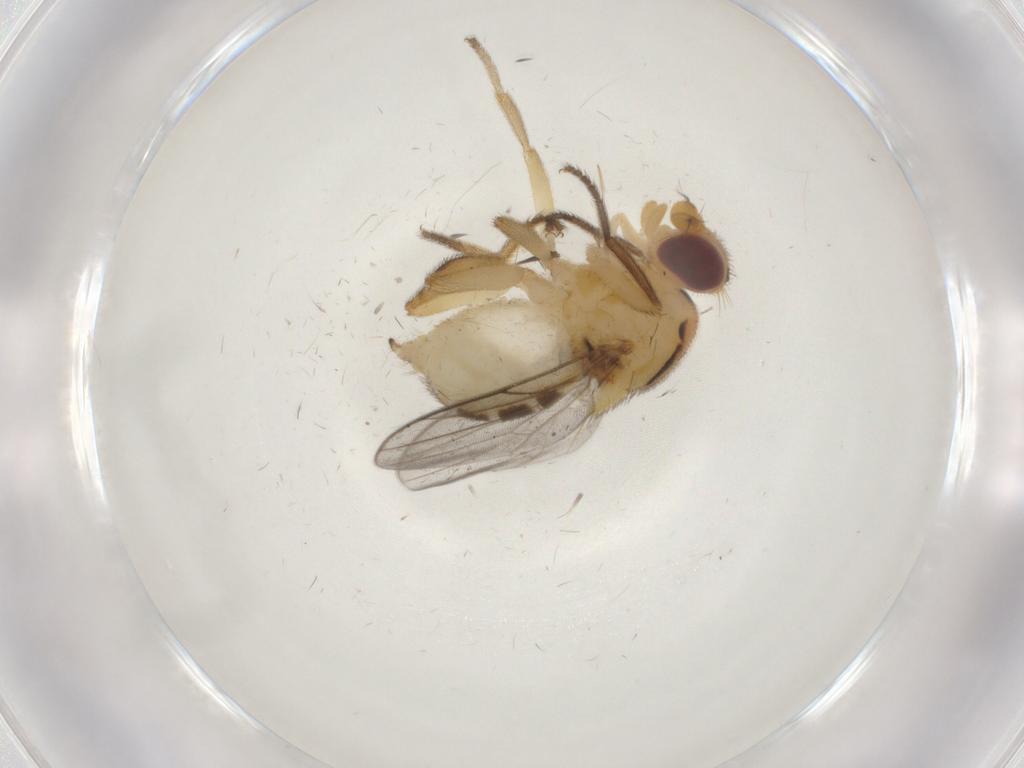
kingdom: Animalia
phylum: Arthropoda
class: Insecta
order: Diptera
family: Chloropidae
